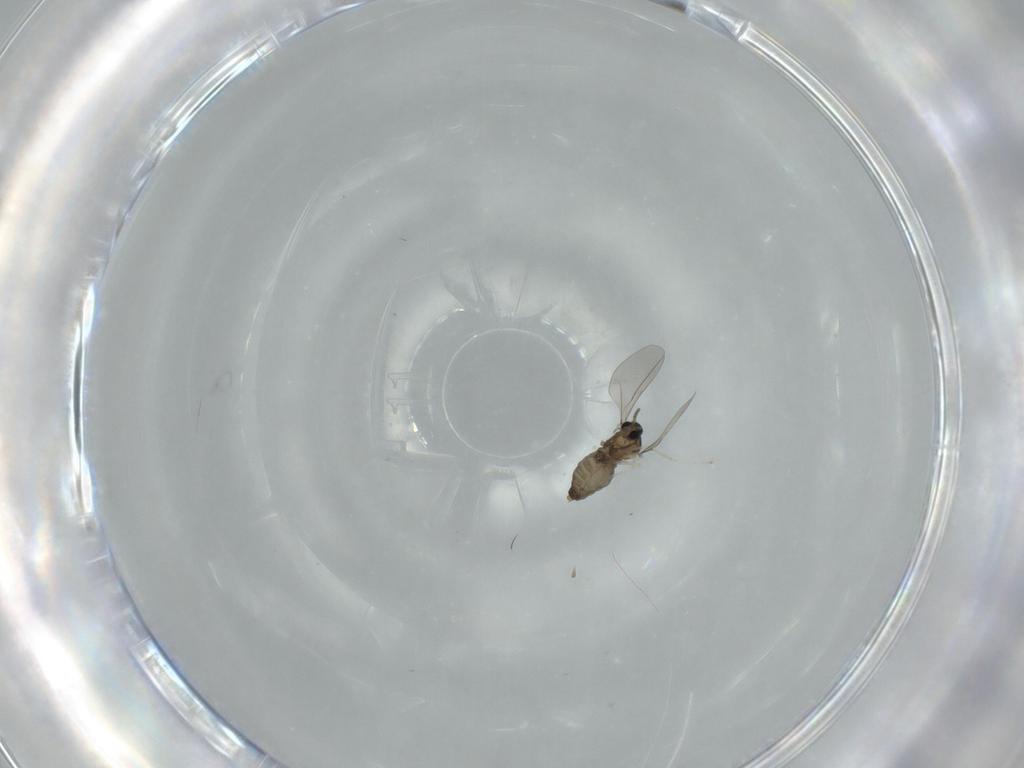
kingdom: Animalia
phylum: Arthropoda
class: Insecta
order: Diptera
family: Cecidomyiidae
